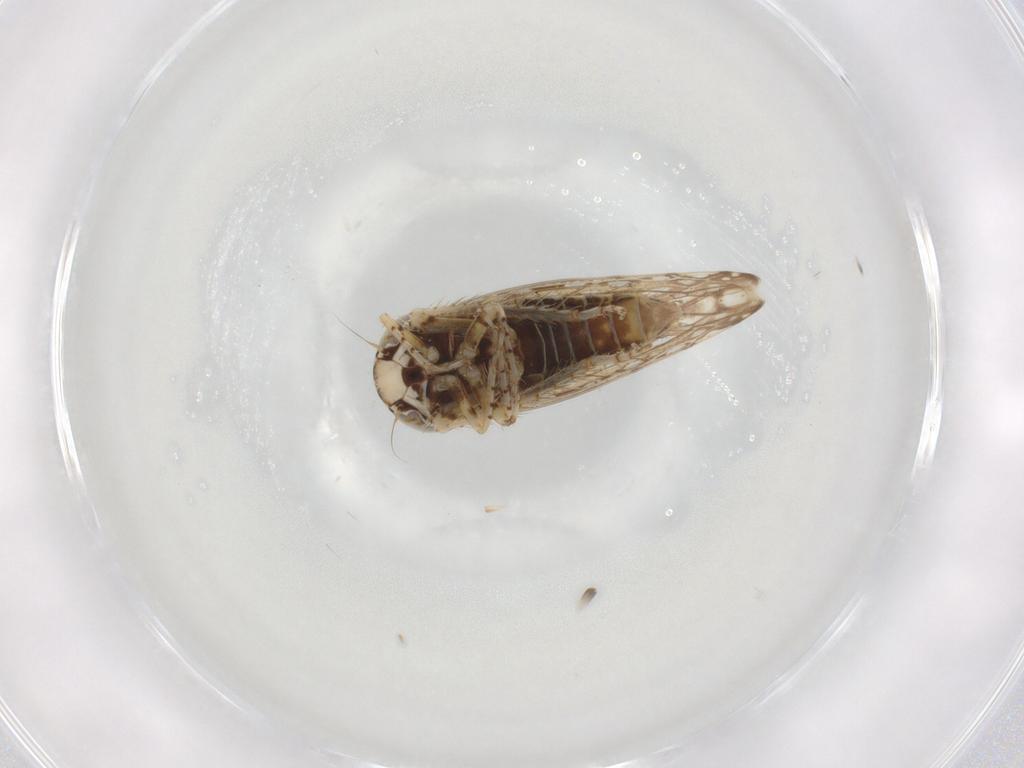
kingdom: Animalia
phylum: Arthropoda
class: Insecta
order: Hemiptera
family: Cicadellidae
